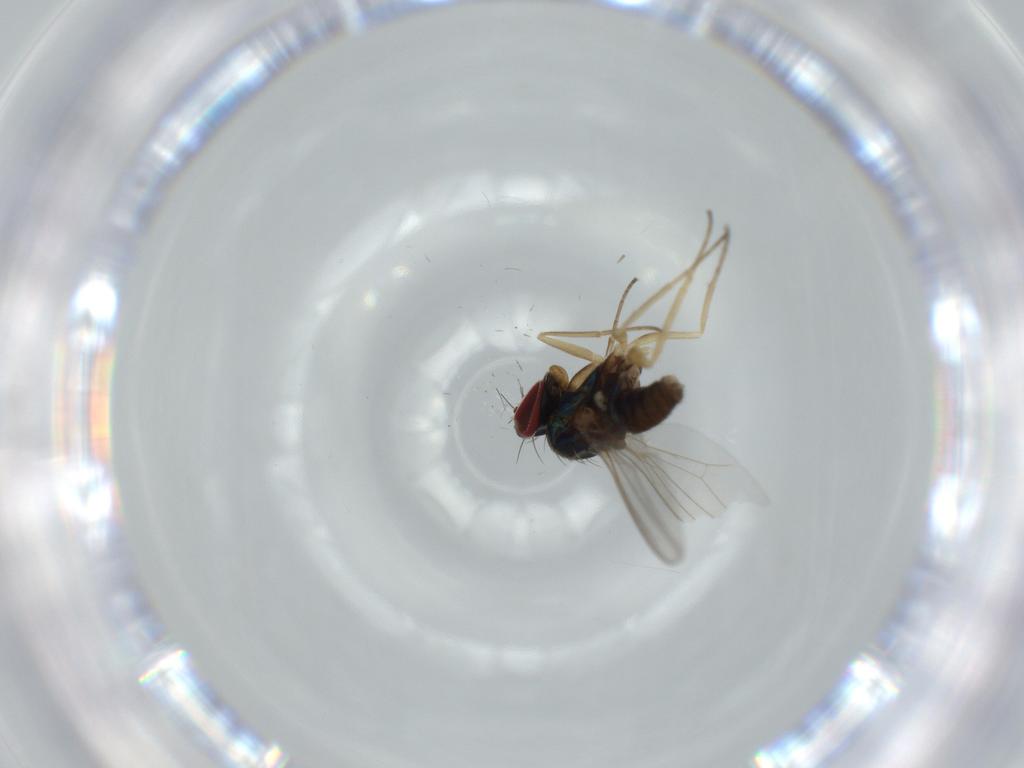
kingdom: Animalia
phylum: Arthropoda
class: Insecta
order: Diptera
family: Dolichopodidae
